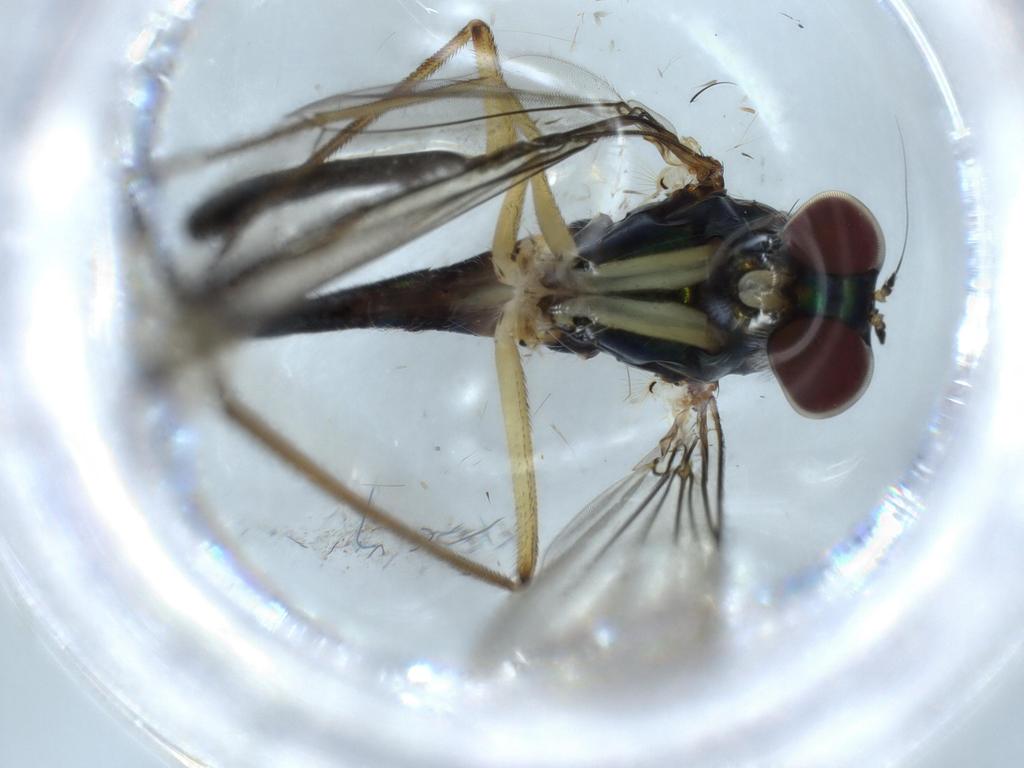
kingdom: Animalia
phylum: Arthropoda
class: Insecta
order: Diptera
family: Dolichopodidae
